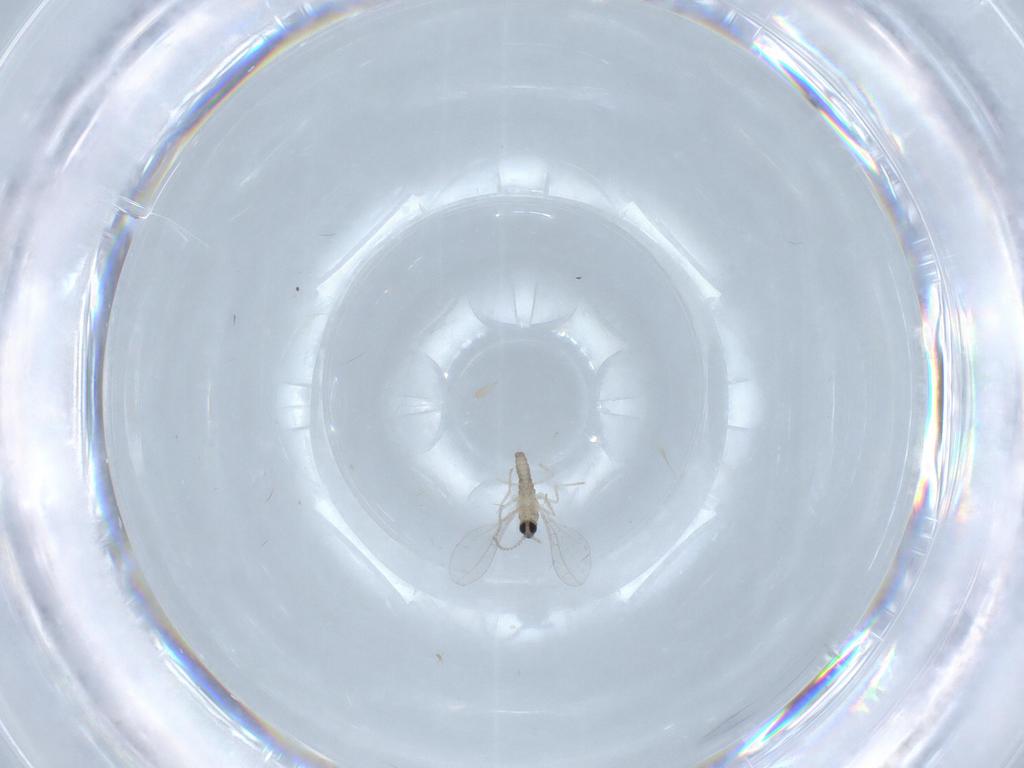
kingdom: Animalia
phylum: Arthropoda
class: Insecta
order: Diptera
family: Cecidomyiidae
